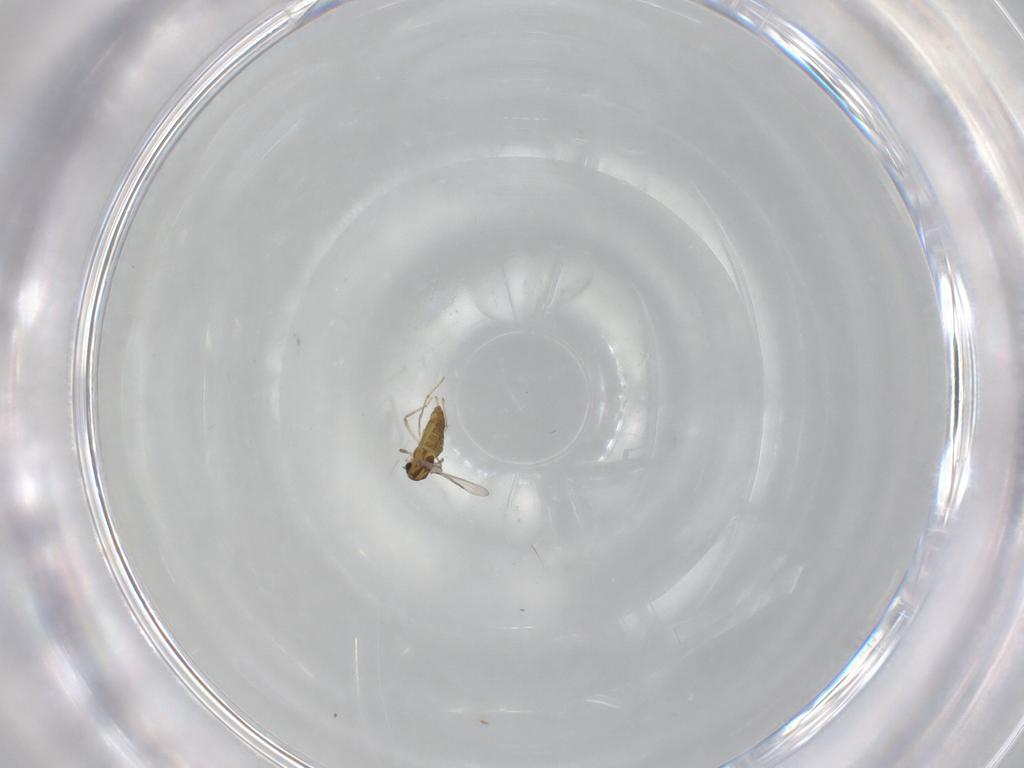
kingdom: Animalia
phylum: Arthropoda
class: Insecta
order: Diptera
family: Chironomidae
